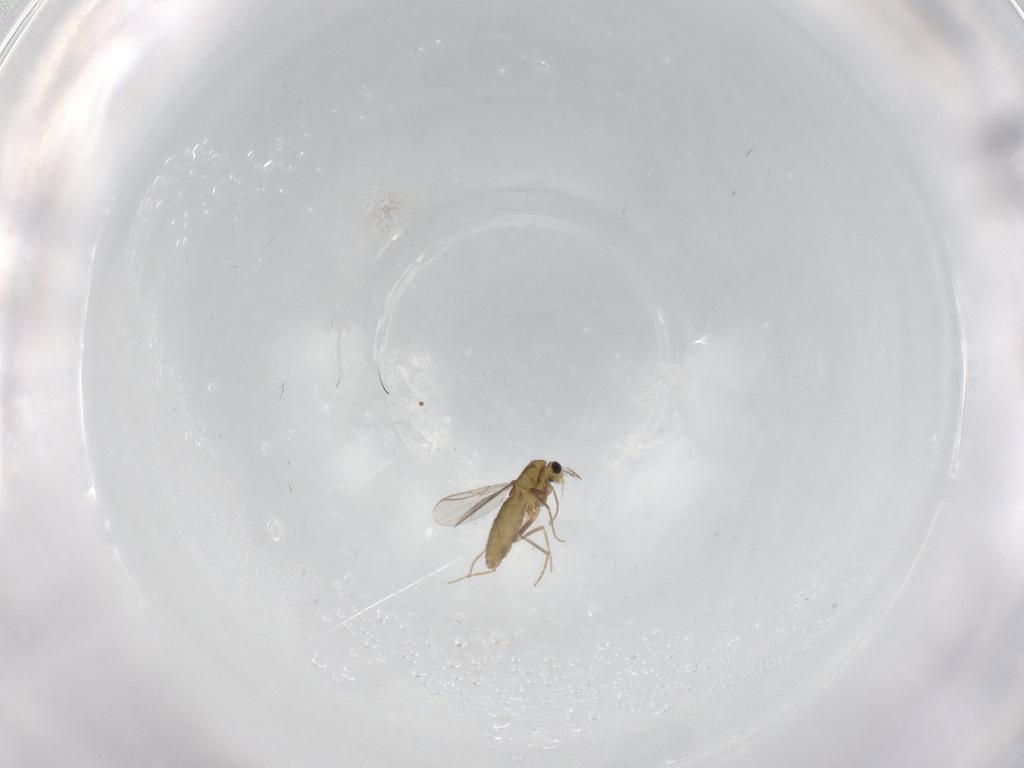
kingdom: Animalia
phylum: Arthropoda
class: Insecta
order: Diptera
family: Chironomidae
